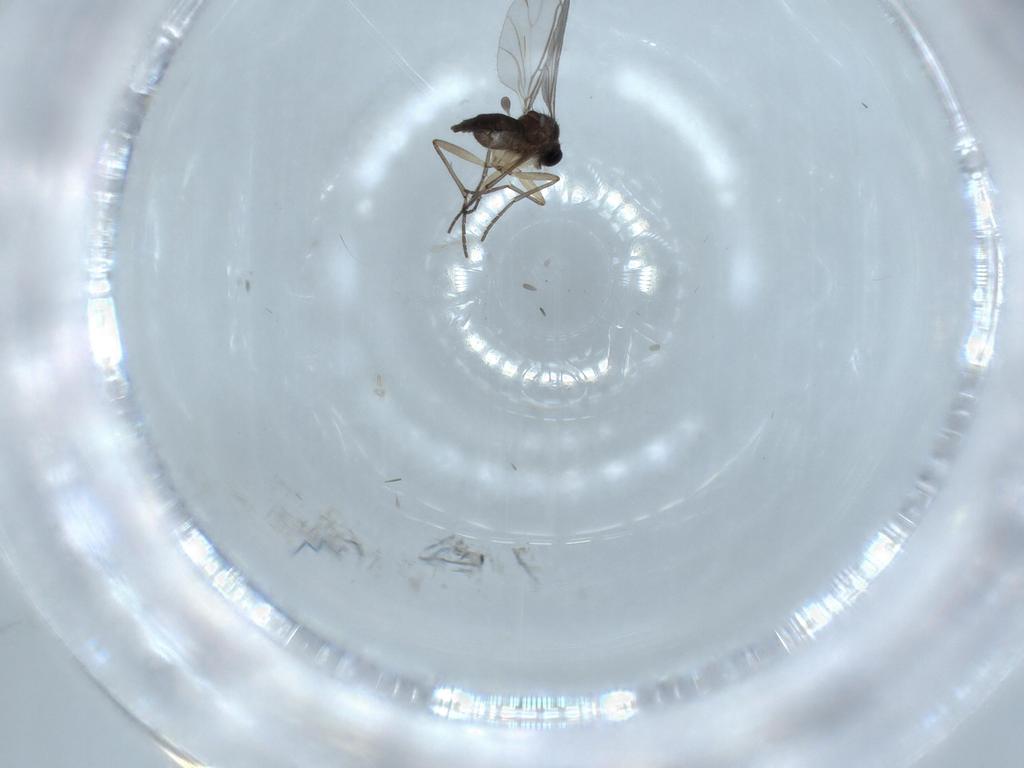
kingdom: Animalia
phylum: Arthropoda
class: Insecta
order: Diptera
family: Sciaridae
